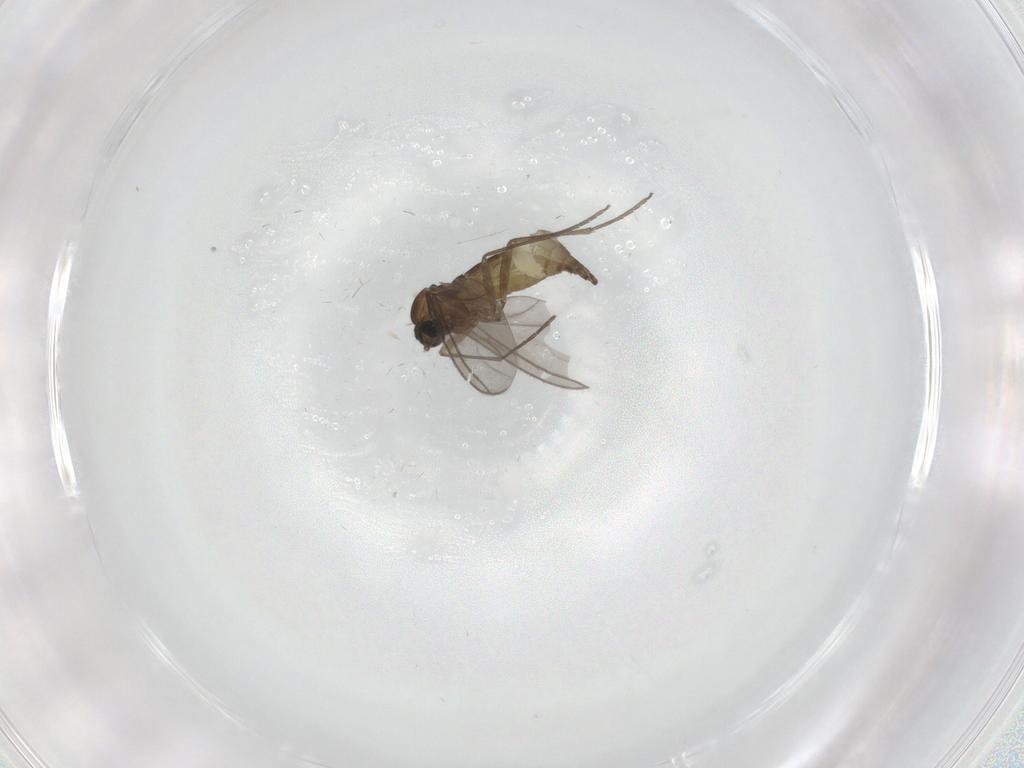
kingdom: Animalia
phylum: Arthropoda
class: Insecta
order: Diptera
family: Sciaridae
